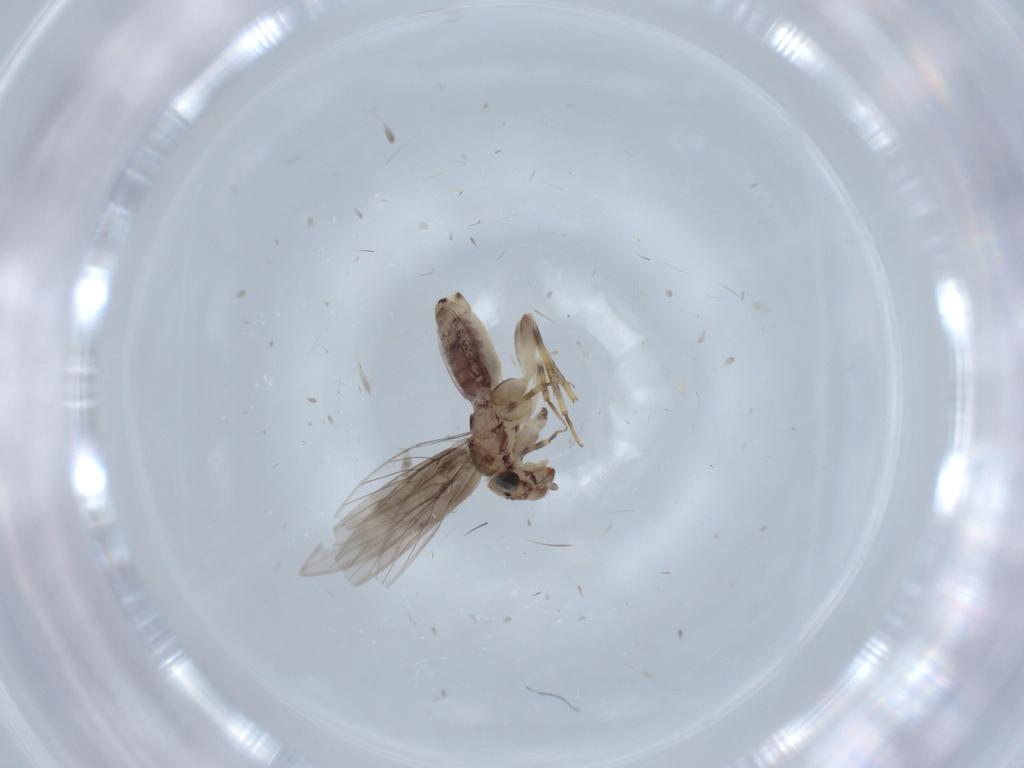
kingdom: Animalia
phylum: Arthropoda
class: Insecta
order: Psocodea
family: Lepidopsocidae
